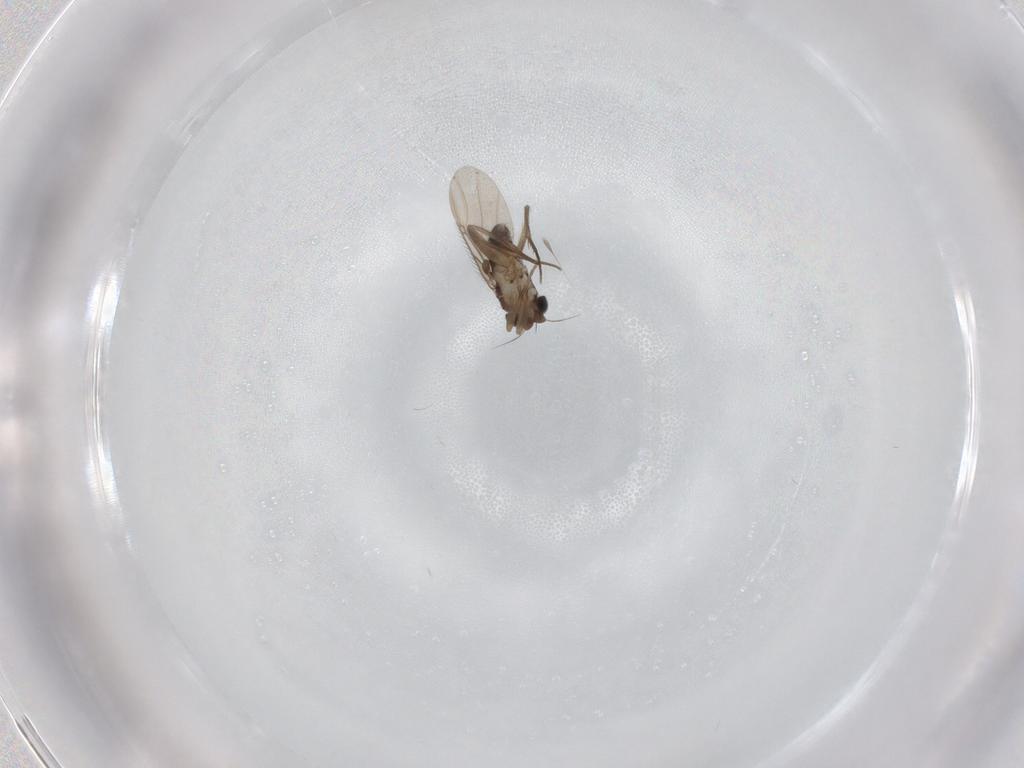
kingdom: Animalia
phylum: Arthropoda
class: Insecta
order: Diptera
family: Phoridae
